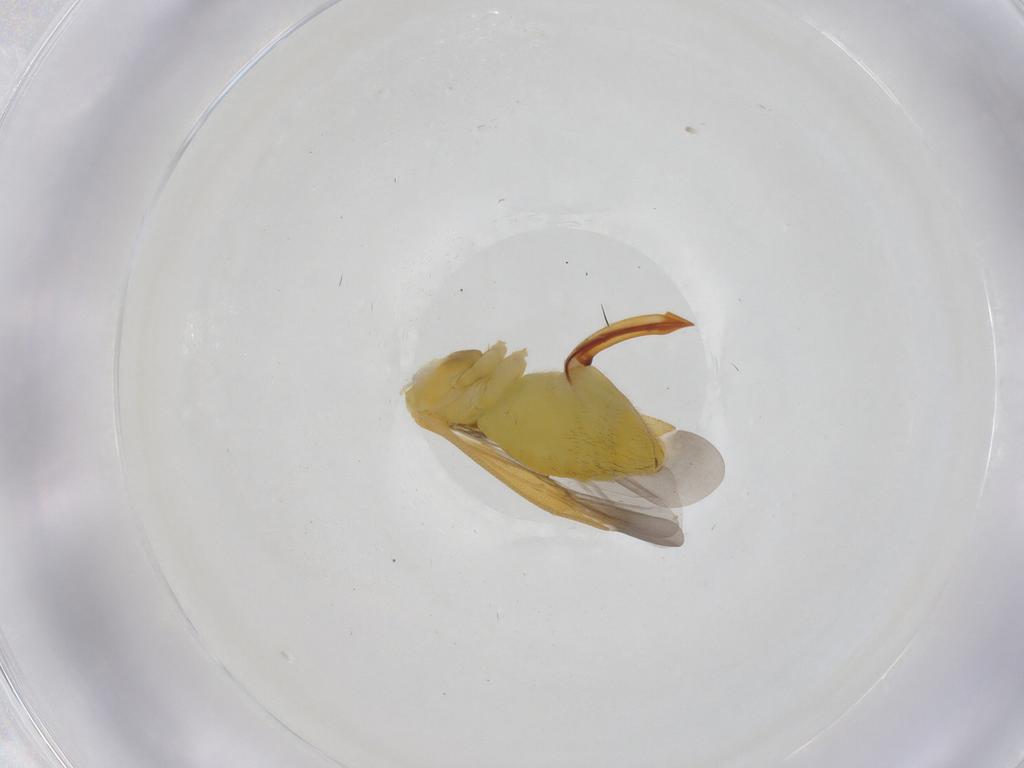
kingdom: Animalia
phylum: Arthropoda
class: Insecta
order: Hemiptera
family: Miridae
